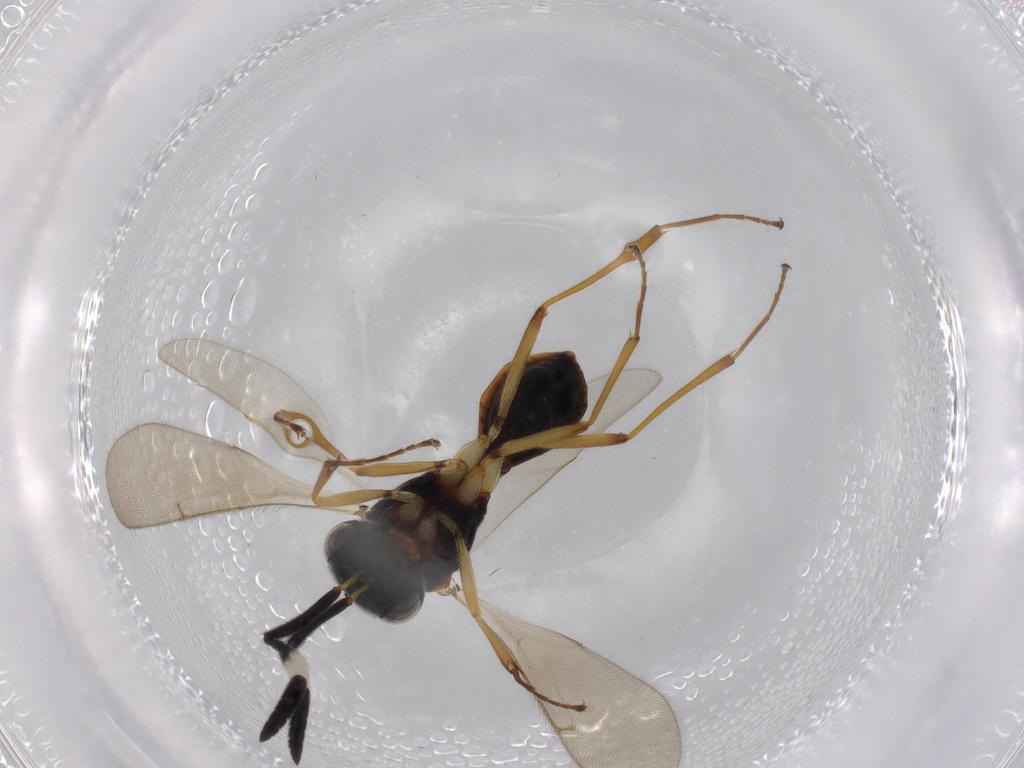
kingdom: Animalia
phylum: Arthropoda
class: Insecta
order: Hymenoptera
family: Scelionidae
